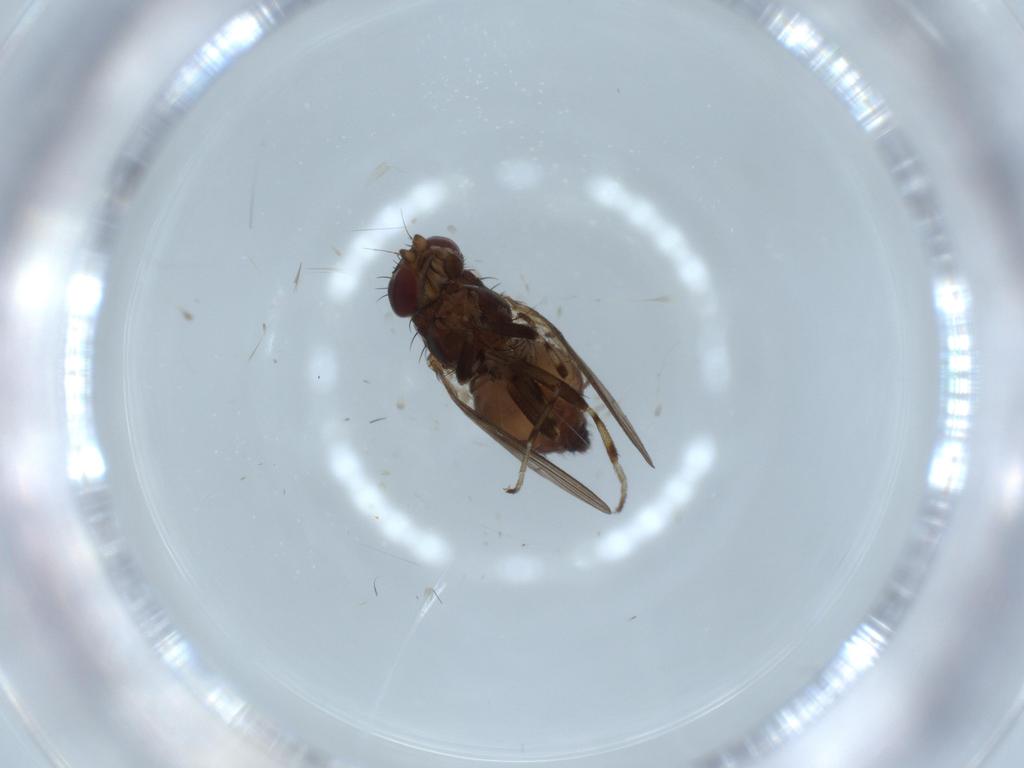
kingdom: Animalia
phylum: Arthropoda
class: Insecta
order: Diptera
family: Heleomyzidae
